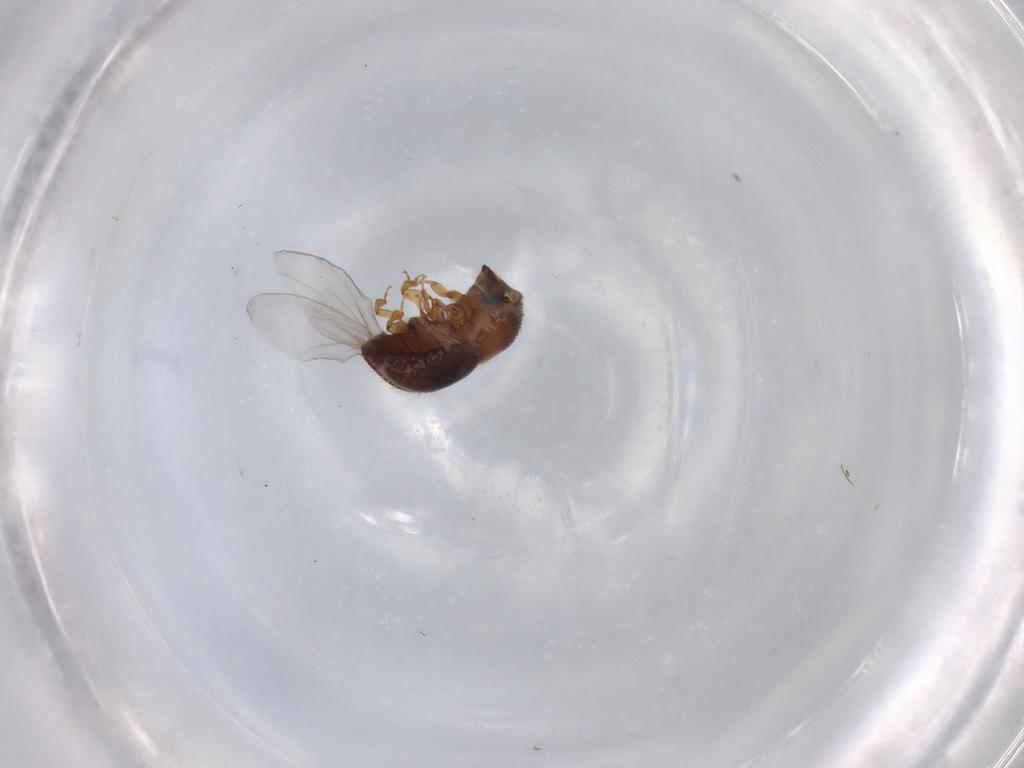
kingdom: Animalia
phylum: Arthropoda
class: Insecta
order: Coleoptera
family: Curculionidae
